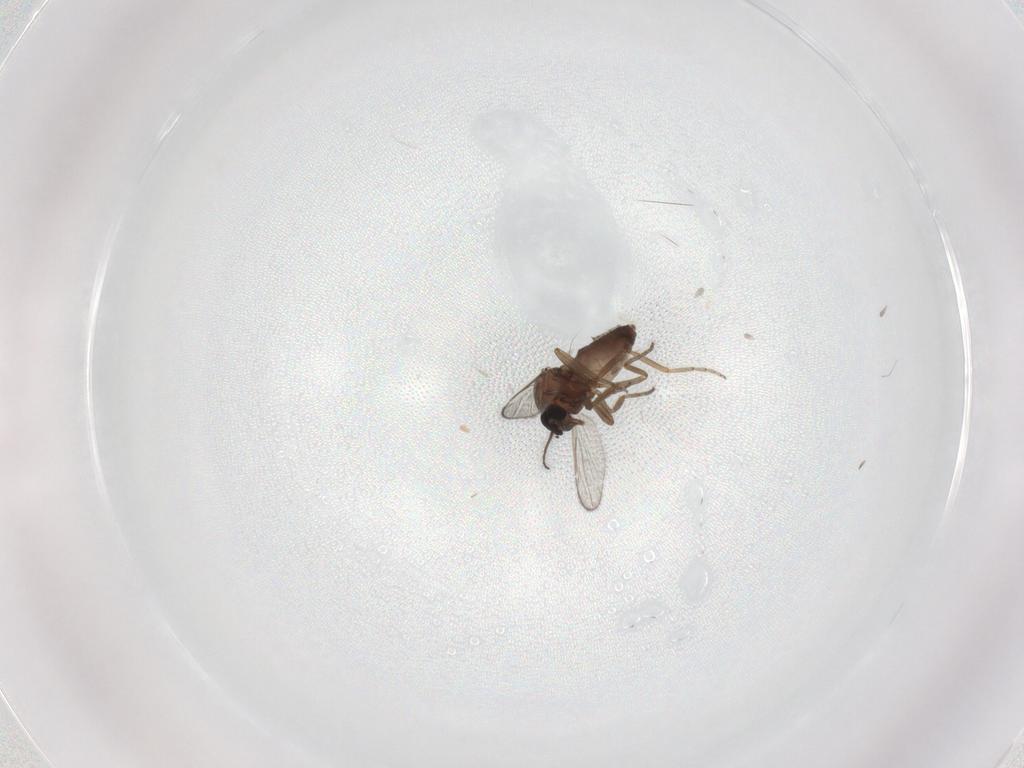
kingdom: Animalia
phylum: Arthropoda
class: Insecta
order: Diptera
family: Ceratopogonidae
